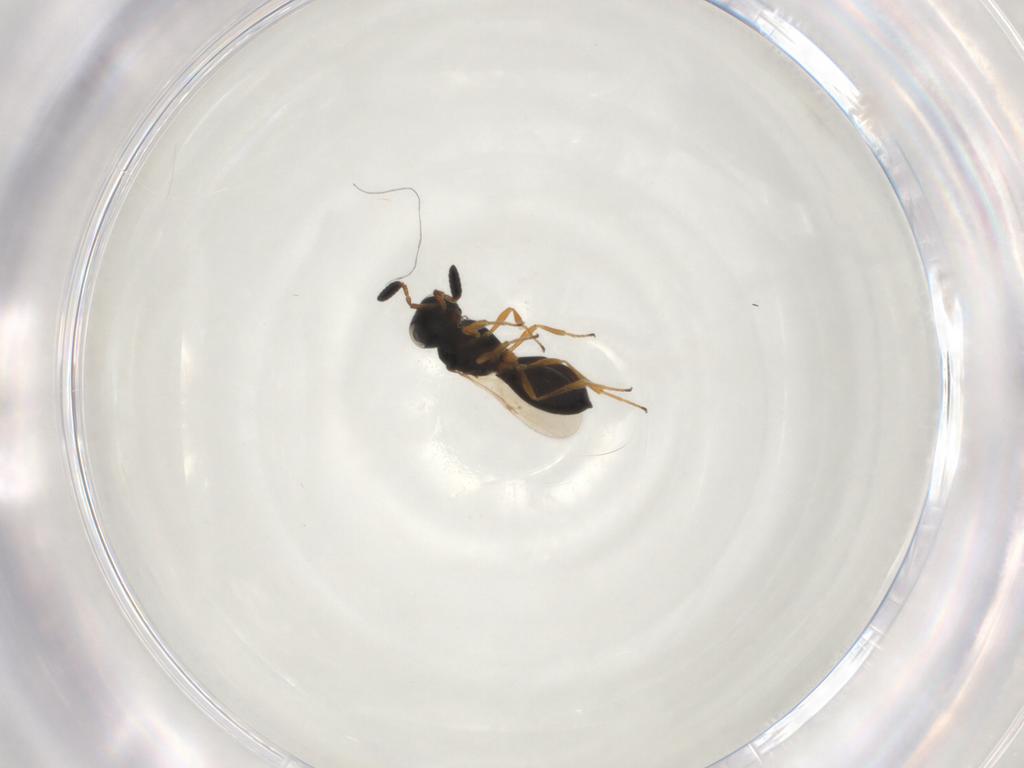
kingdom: Animalia
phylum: Arthropoda
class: Insecta
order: Hymenoptera
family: Scelionidae
